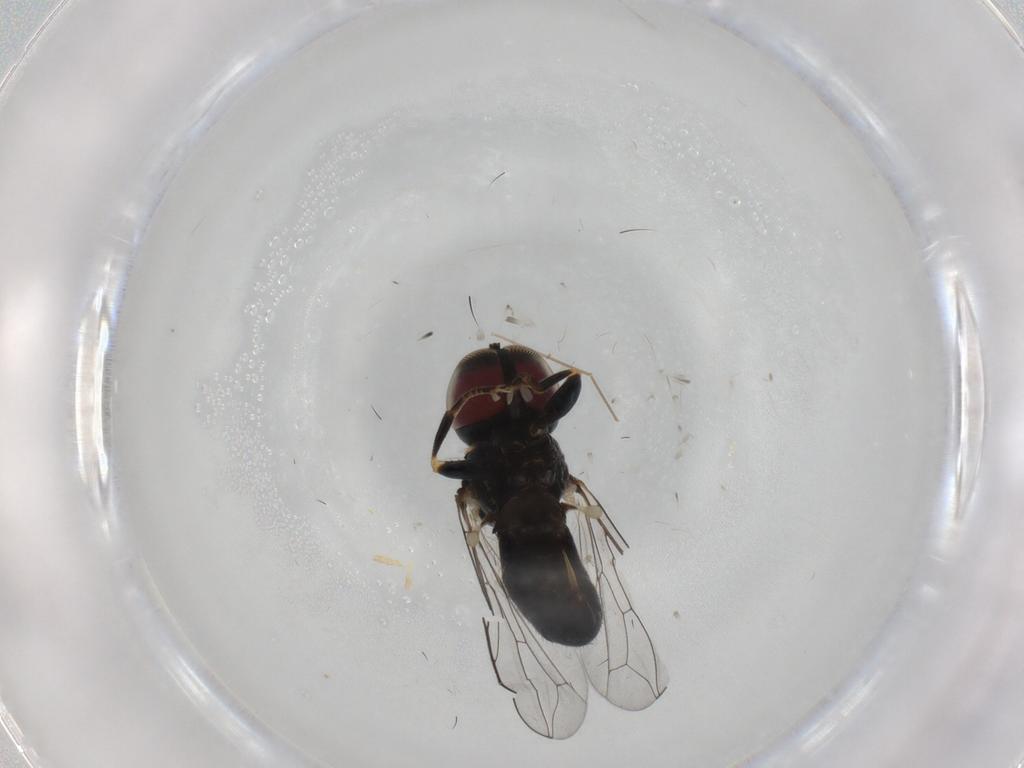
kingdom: Animalia
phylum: Arthropoda
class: Insecta
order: Diptera
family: Pipunculidae
